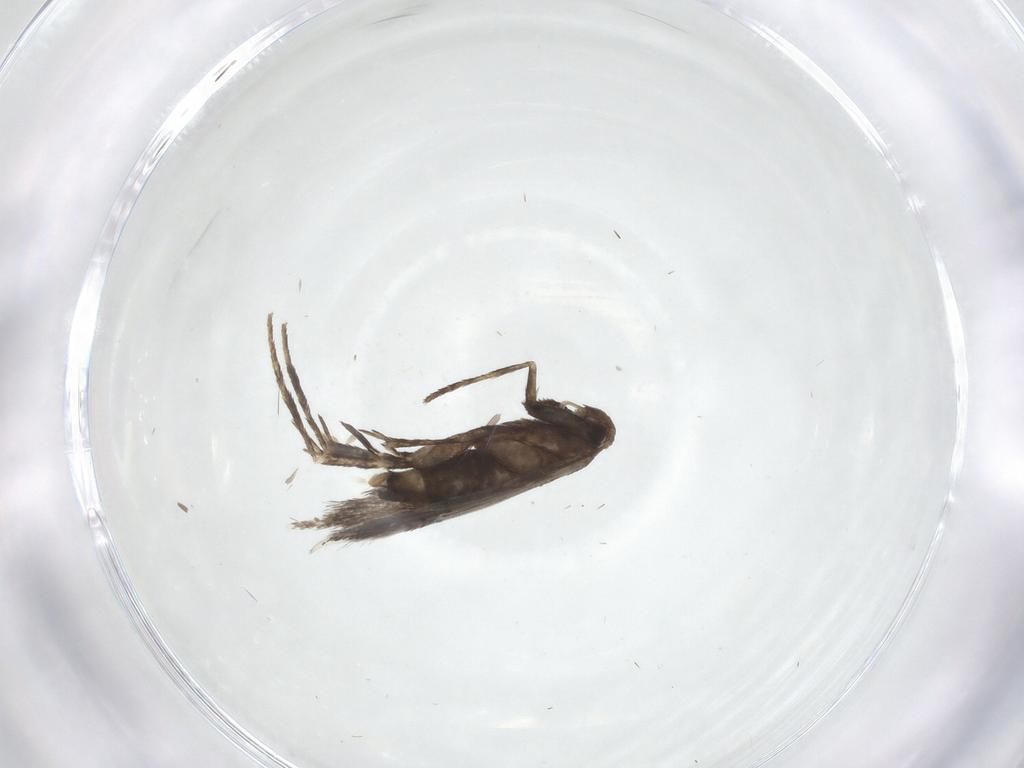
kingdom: Animalia
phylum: Arthropoda
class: Insecta
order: Lepidoptera
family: Gracillariidae
